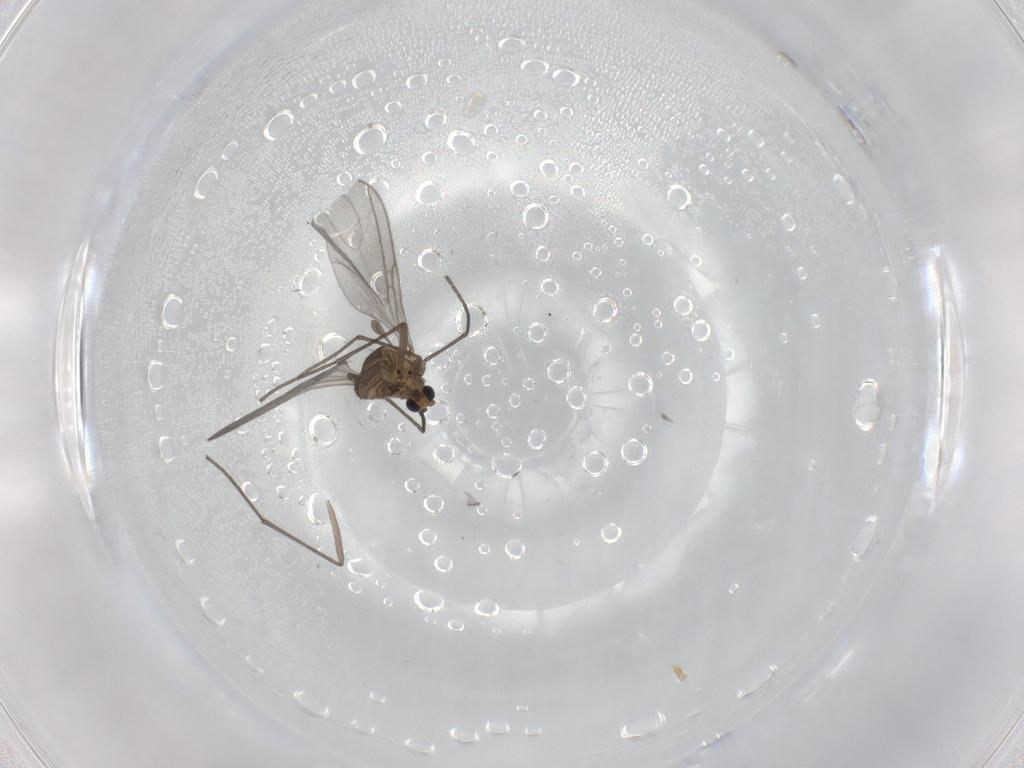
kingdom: Animalia
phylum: Arthropoda
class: Insecta
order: Diptera
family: Sciaridae
